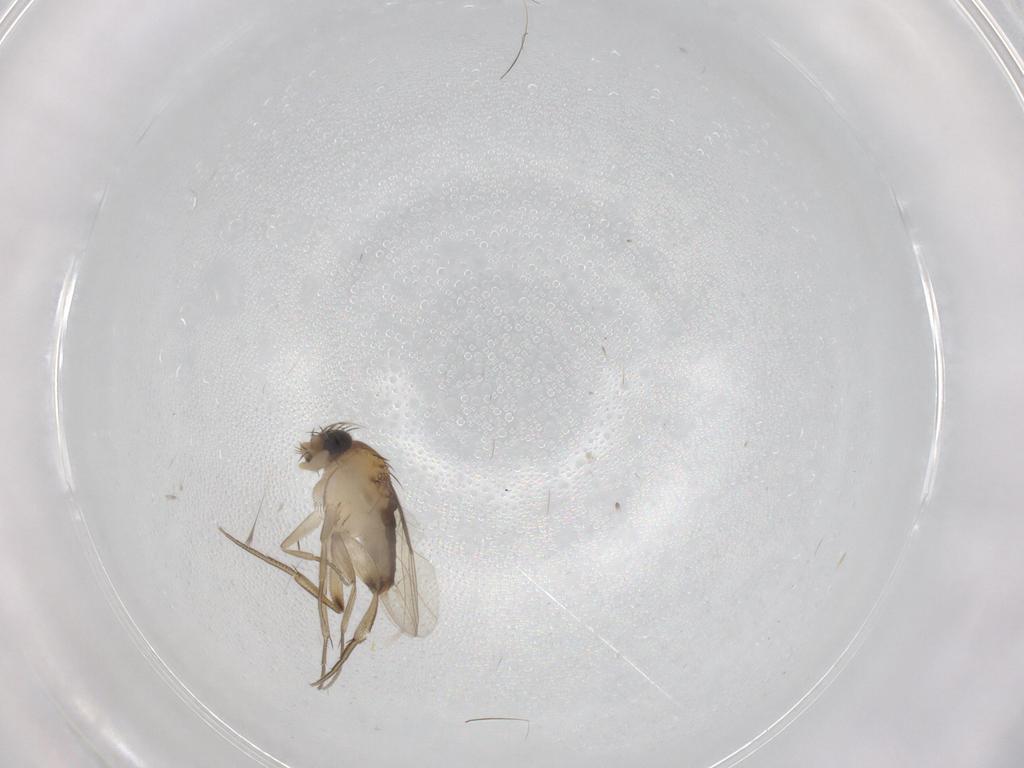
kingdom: Animalia
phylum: Arthropoda
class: Insecta
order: Diptera
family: Phoridae
